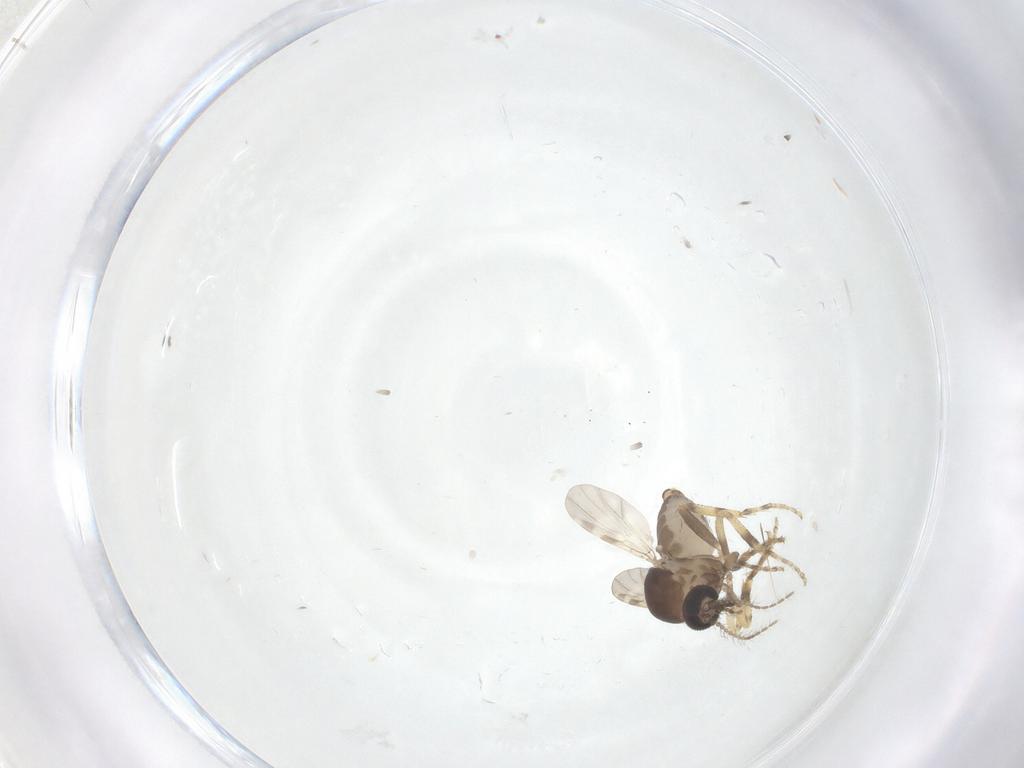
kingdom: Animalia
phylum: Arthropoda
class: Insecta
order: Diptera
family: Ceratopogonidae
